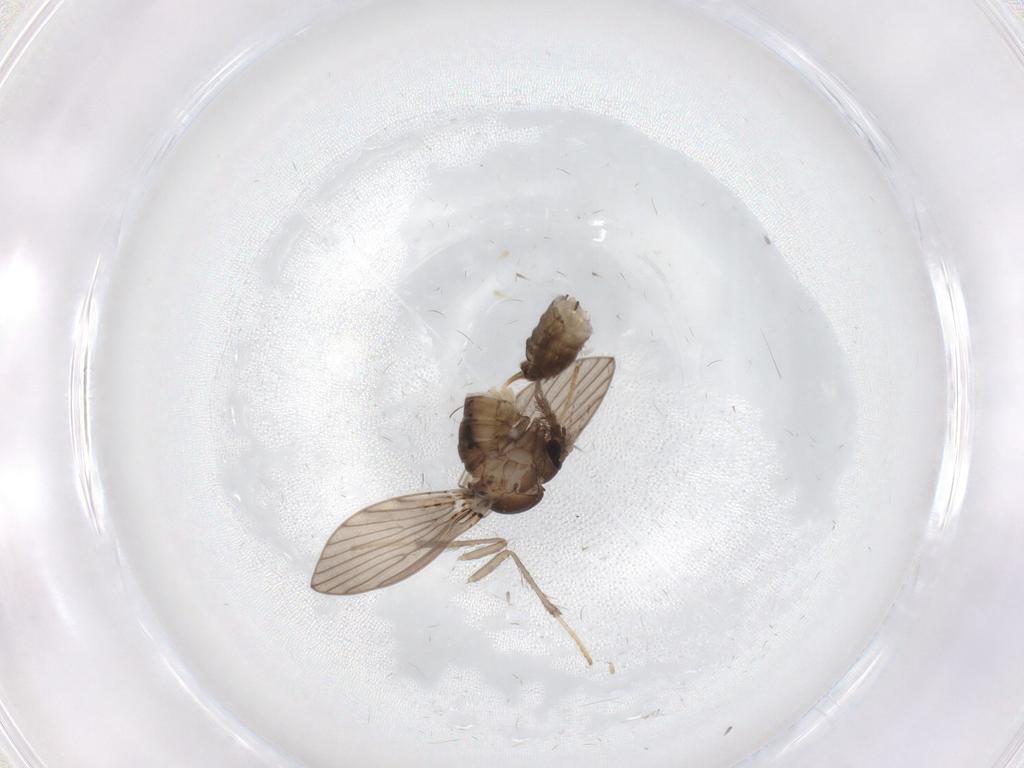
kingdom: Animalia
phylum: Arthropoda
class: Insecta
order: Diptera
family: Psychodidae
